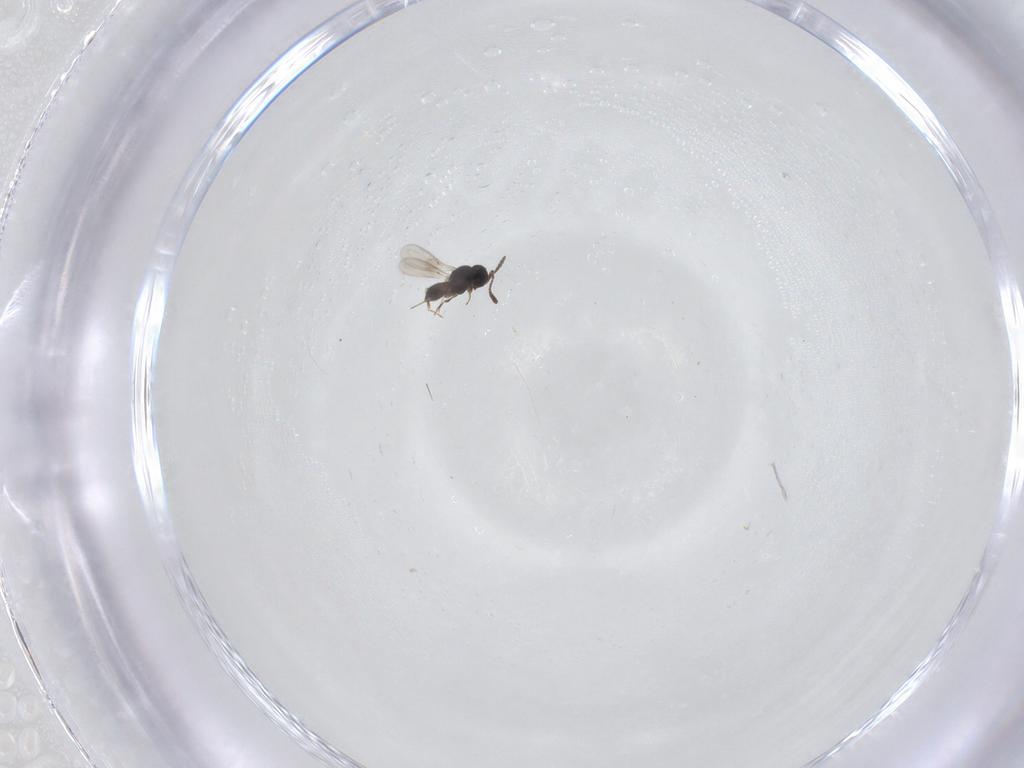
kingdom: Animalia
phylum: Arthropoda
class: Insecta
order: Hymenoptera
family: Scelionidae
